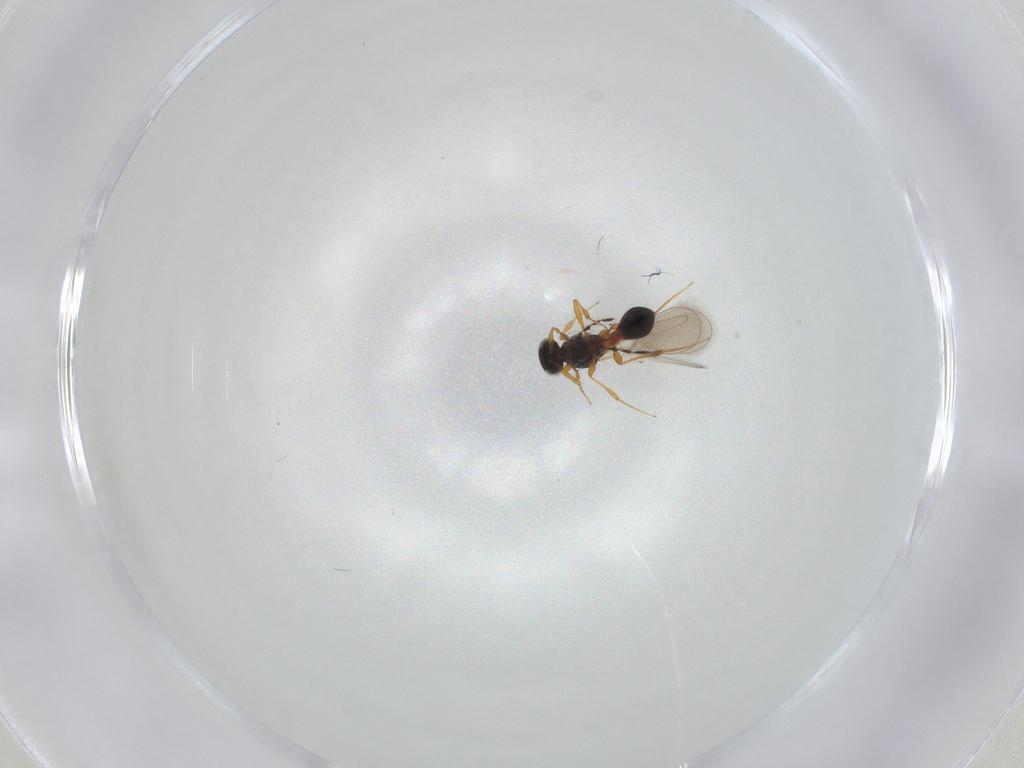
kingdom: Animalia
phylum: Arthropoda
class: Insecta
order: Hymenoptera
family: Platygastridae
